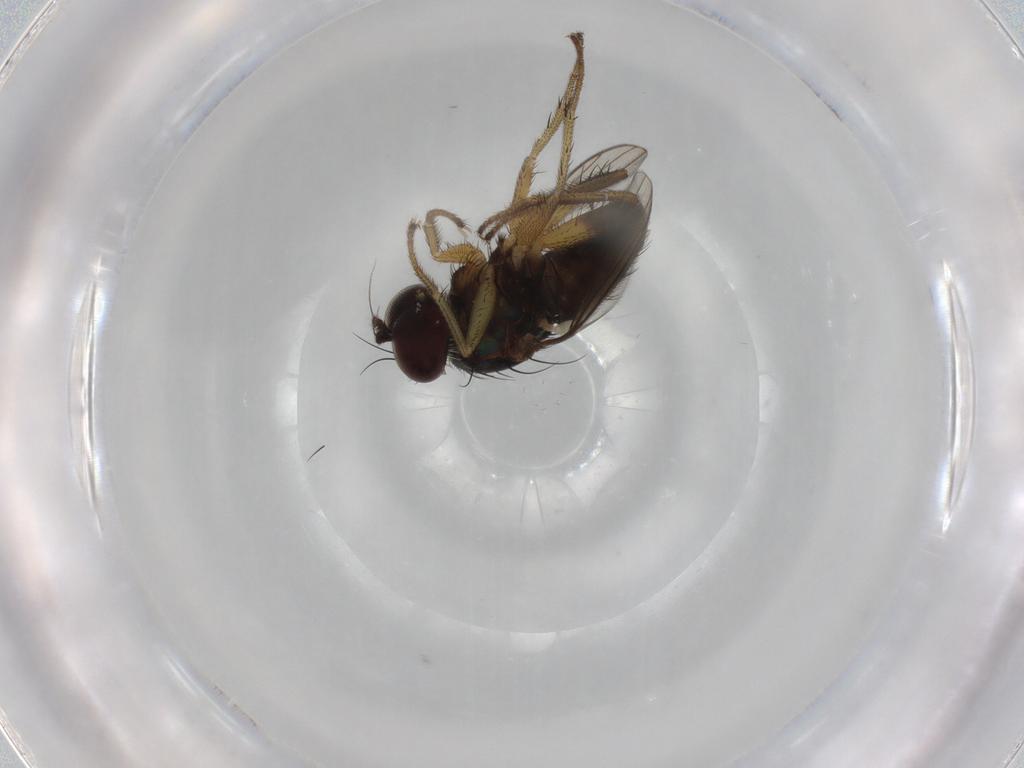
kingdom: Animalia
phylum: Arthropoda
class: Insecta
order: Diptera
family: Dolichopodidae
